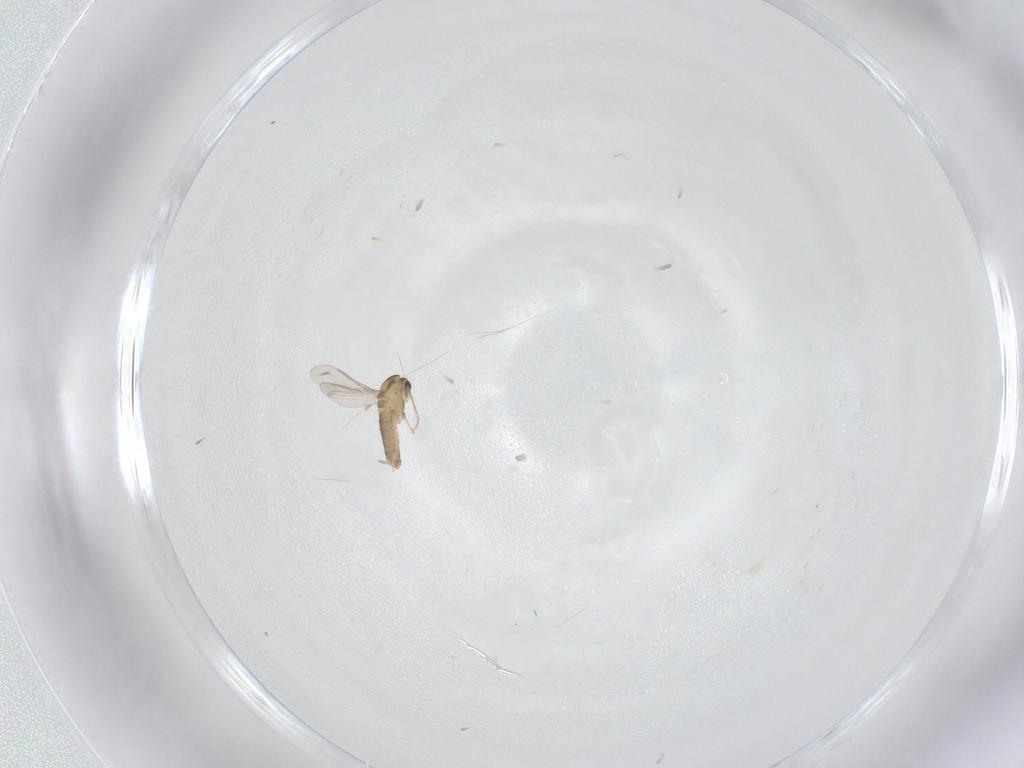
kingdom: Animalia
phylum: Arthropoda
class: Insecta
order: Diptera
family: Chironomidae
